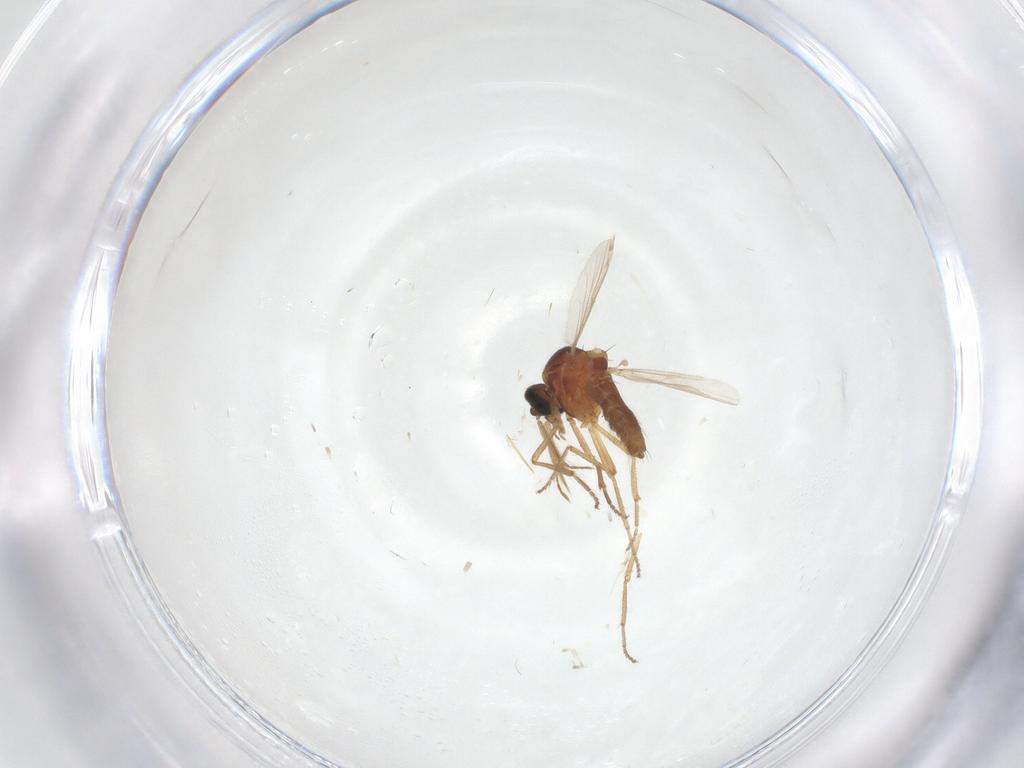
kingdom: Animalia
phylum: Arthropoda
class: Insecta
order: Diptera
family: Ceratopogonidae
